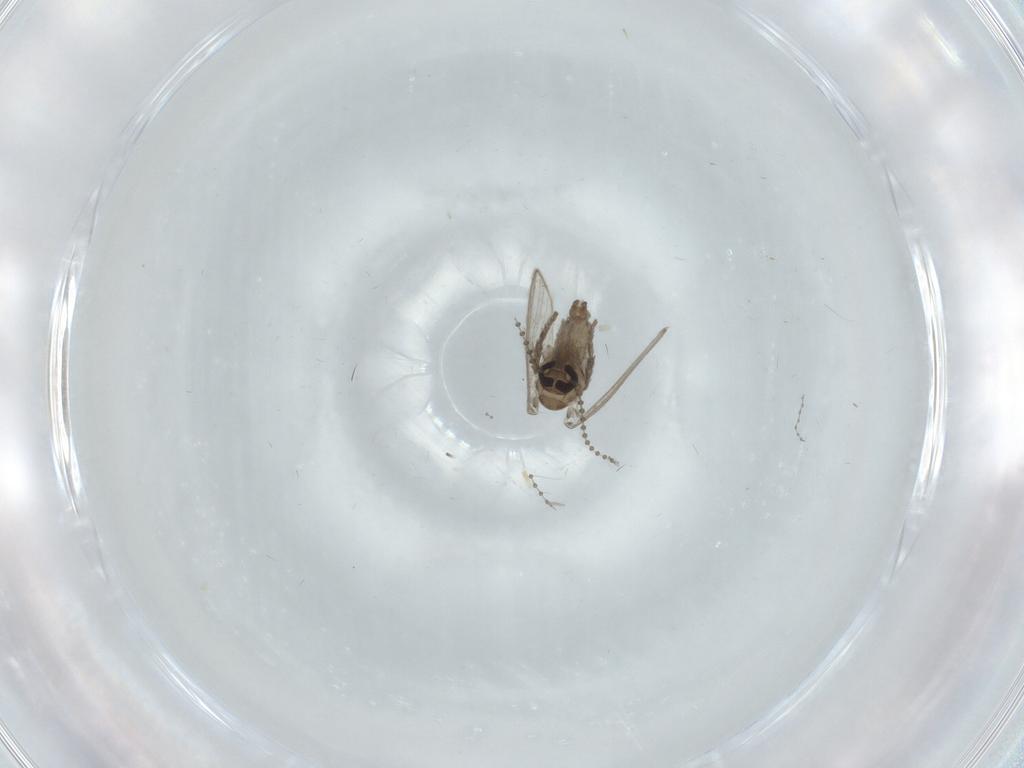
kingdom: Animalia
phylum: Arthropoda
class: Insecta
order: Diptera
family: Psychodidae
